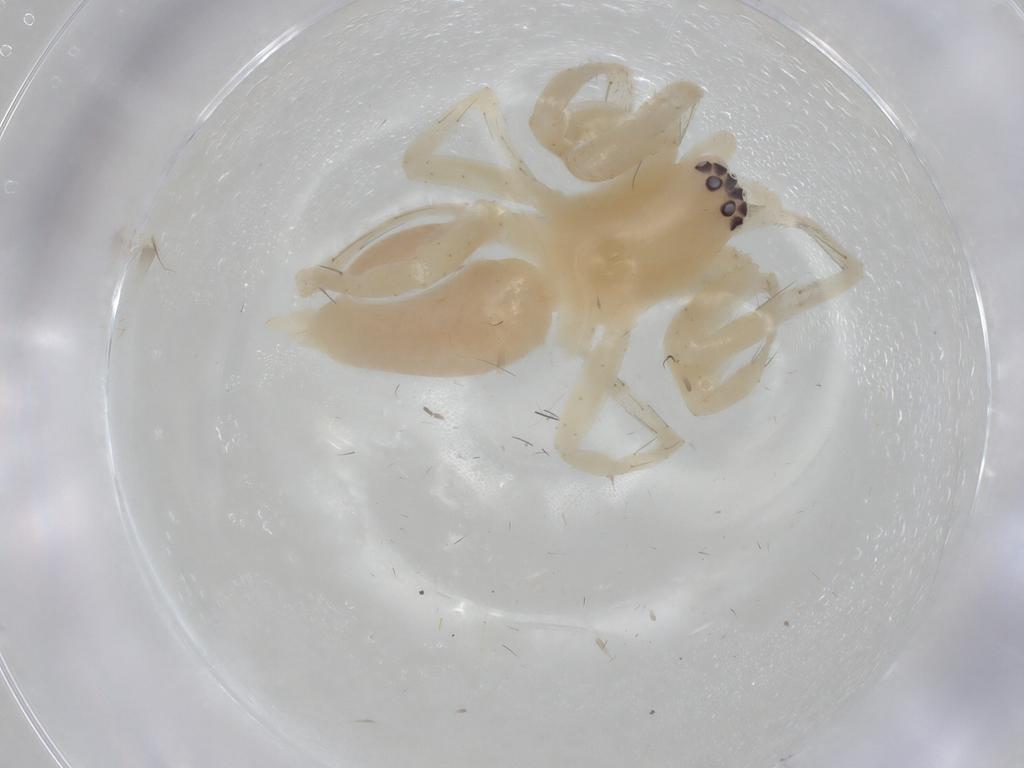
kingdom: Animalia
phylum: Arthropoda
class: Arachnida
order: Araneae
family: Clubionidae
